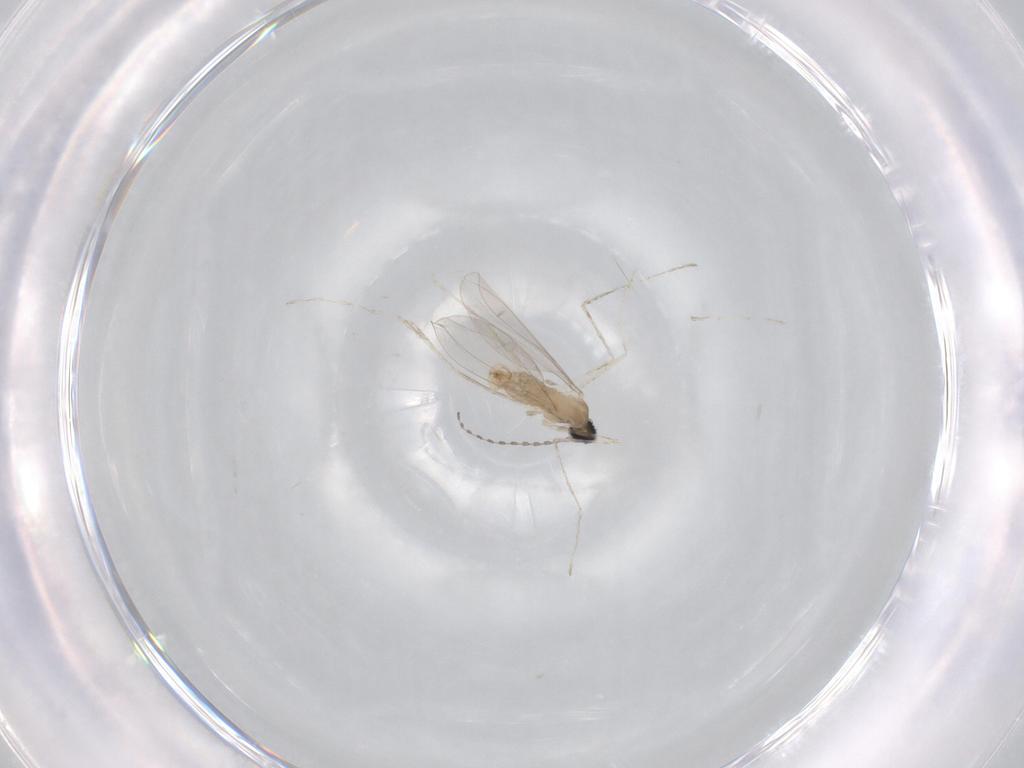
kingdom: Animalia
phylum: Arthropoda
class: Insecta
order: Diptera
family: Cecidomyiidae
